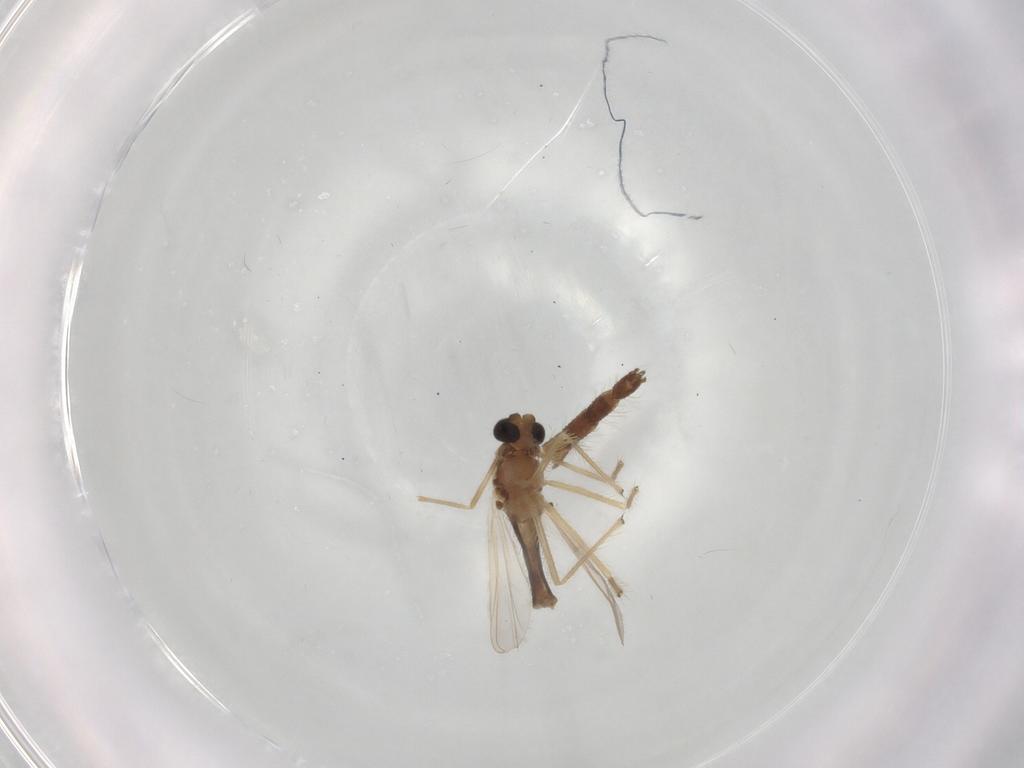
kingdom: Animalia
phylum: Arthropoda
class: Insecta
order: Diptera
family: Chironomidae
